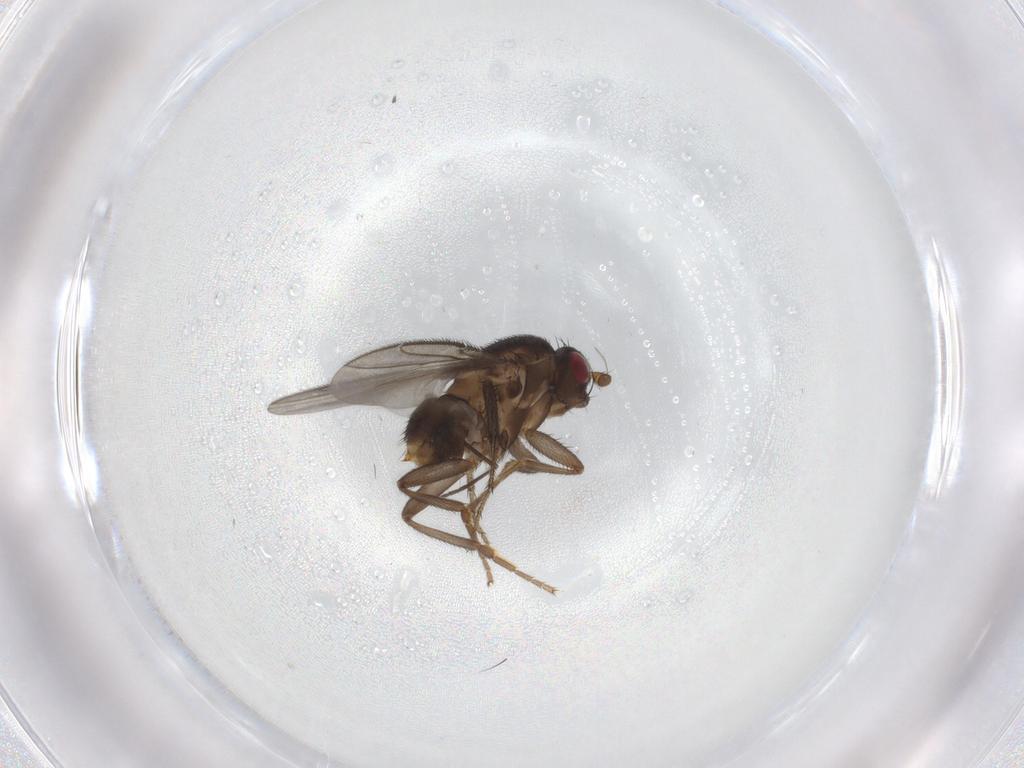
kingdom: Animalia
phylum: Arthropoda
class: Insecta
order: Diptera
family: Sphaeroceridae
